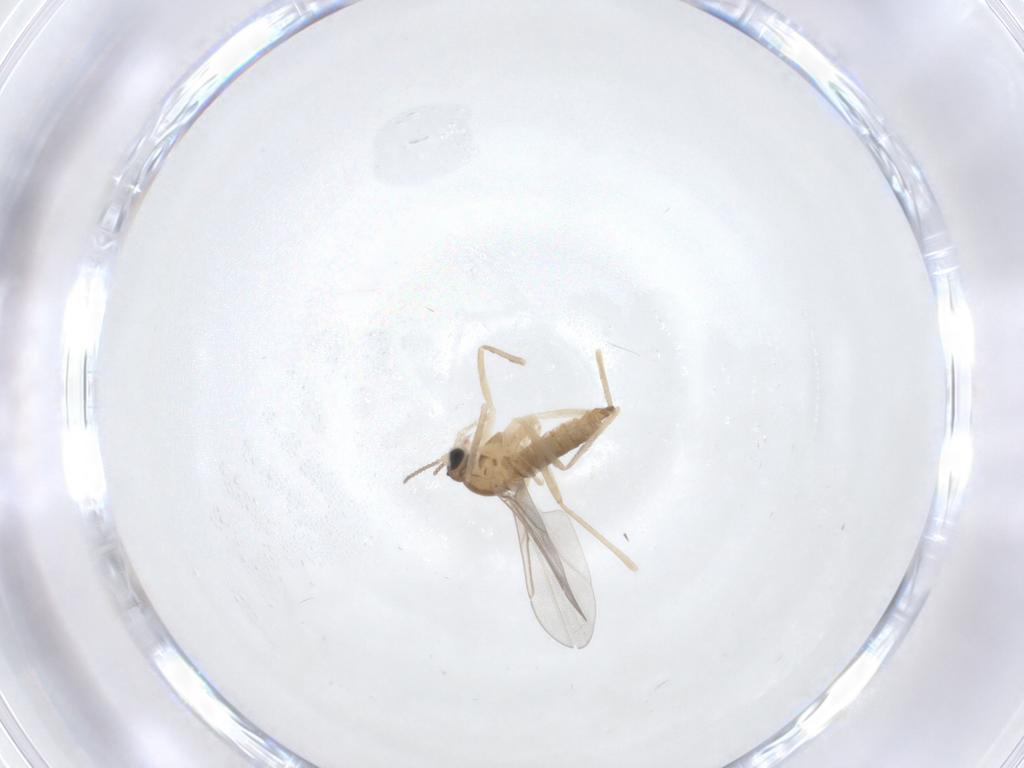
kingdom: Animalia
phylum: Arthropoda
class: Insecta
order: Diptera
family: Cecidomyiidae
